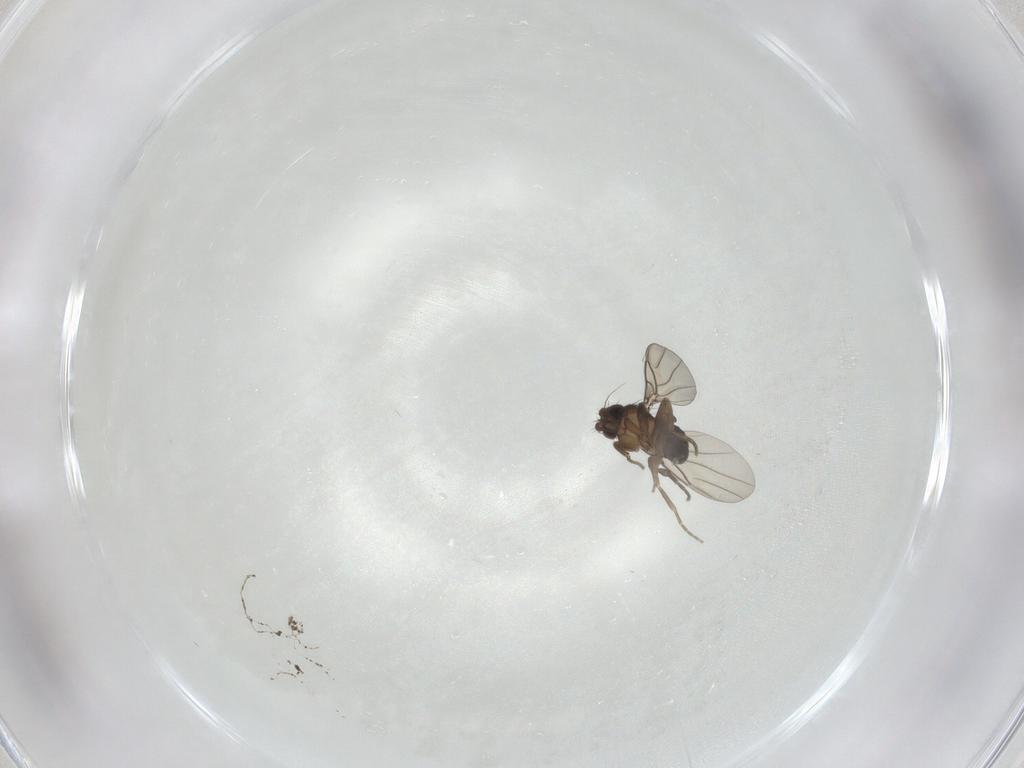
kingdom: Animalia
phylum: Arthropoda
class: Insecta
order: Diptera
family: Phoridae
